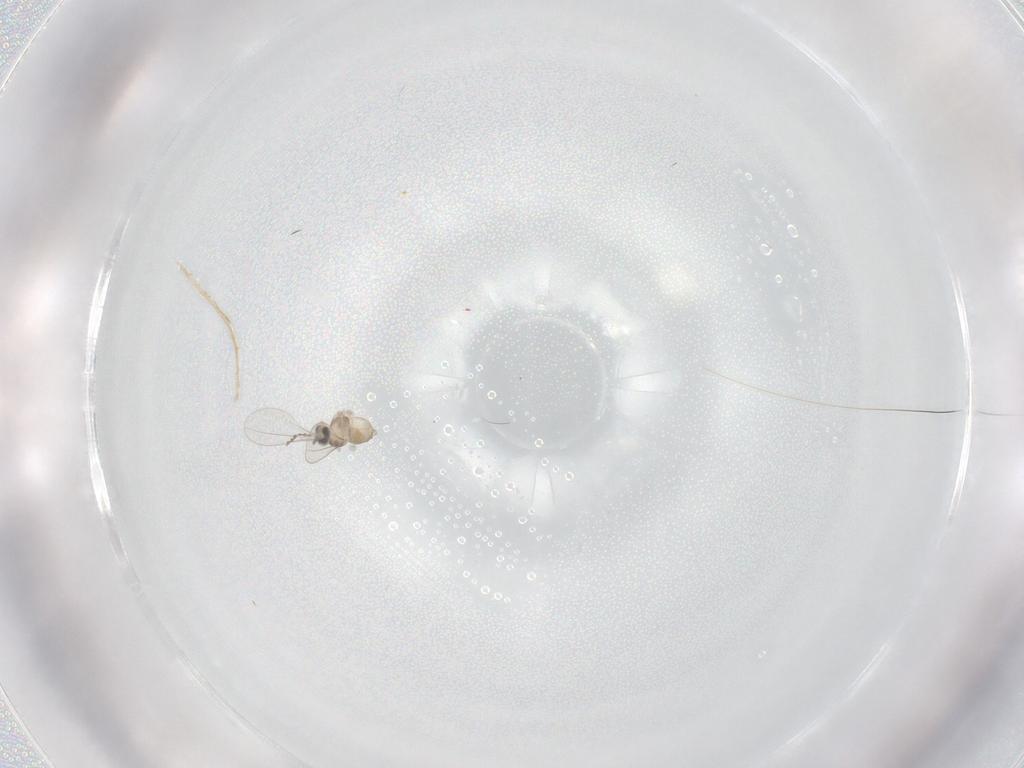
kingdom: Animalia
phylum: Arthropoda
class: Insecta
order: Diptera
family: Cecidomyiidae
